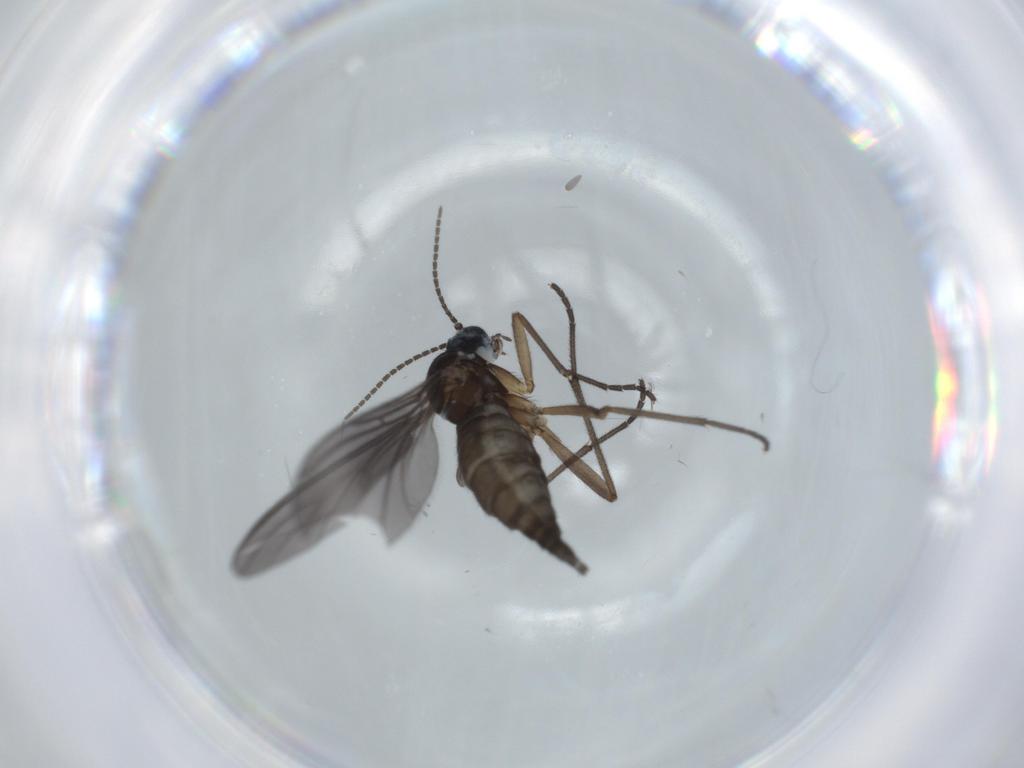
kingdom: Animalia
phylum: Arthropoda
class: Insecta
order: Diptera
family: Sciaridae
